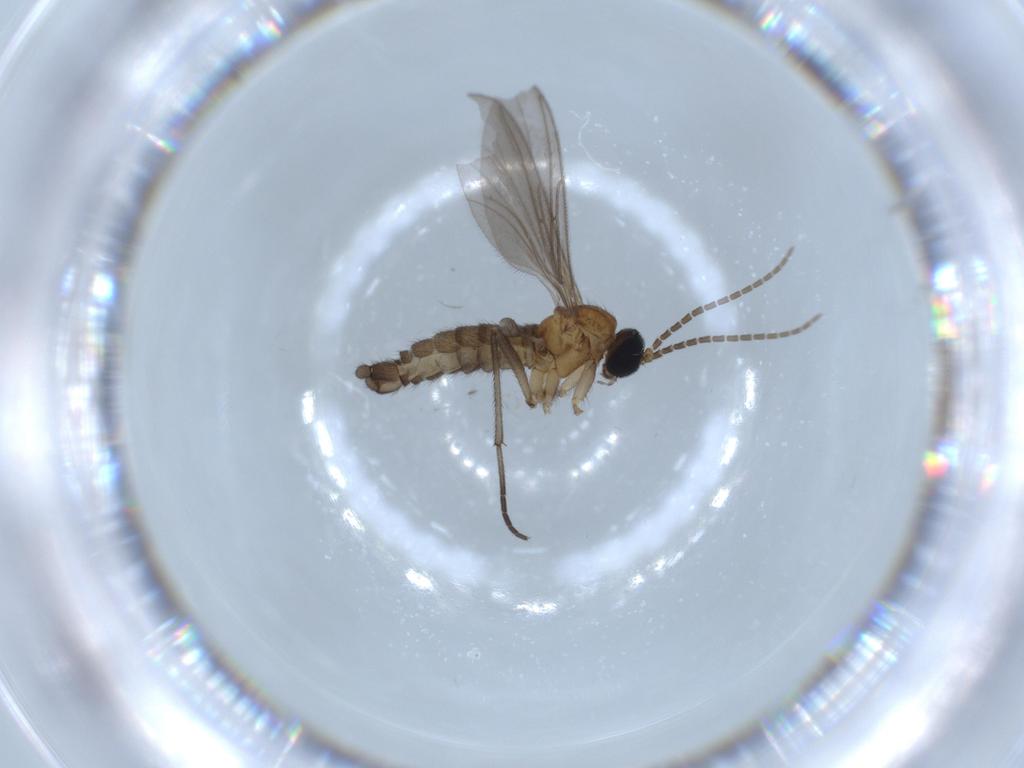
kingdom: Animalia
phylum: Arthropoda
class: Insecta
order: Diptera
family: Sciaridae
